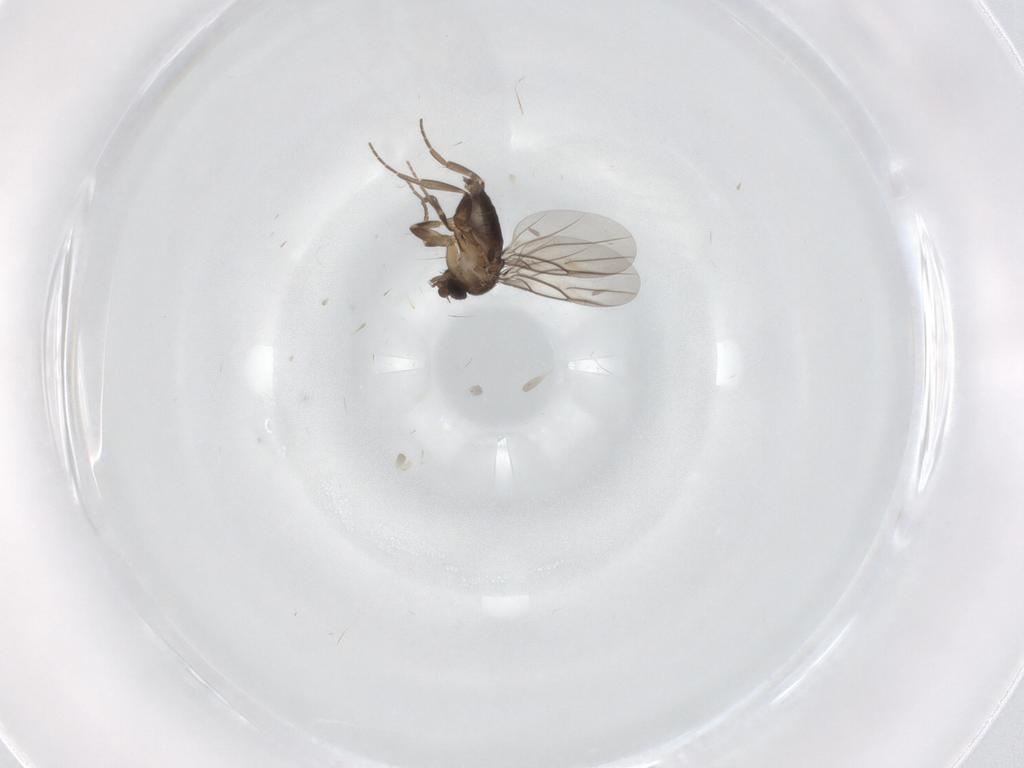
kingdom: Animalia
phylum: Arthropoda
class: Insecta
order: Diptera
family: Phoridae
